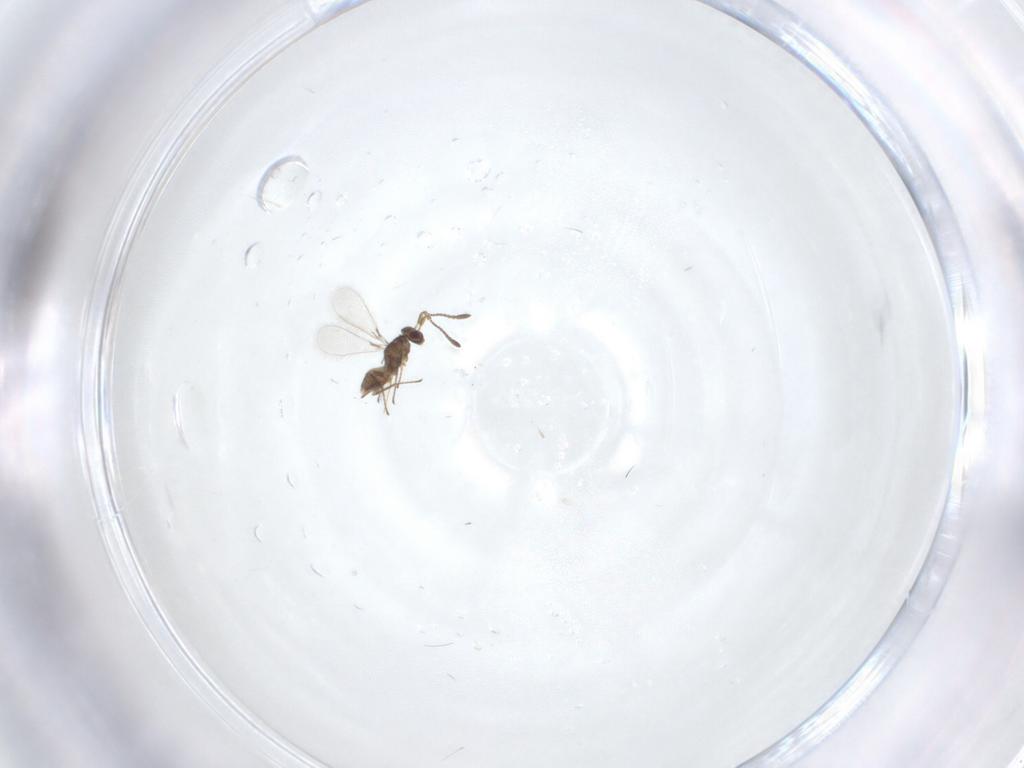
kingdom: Animalia
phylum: Arthropoda
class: Insecta
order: Hymenoptera
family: Mymaridae
